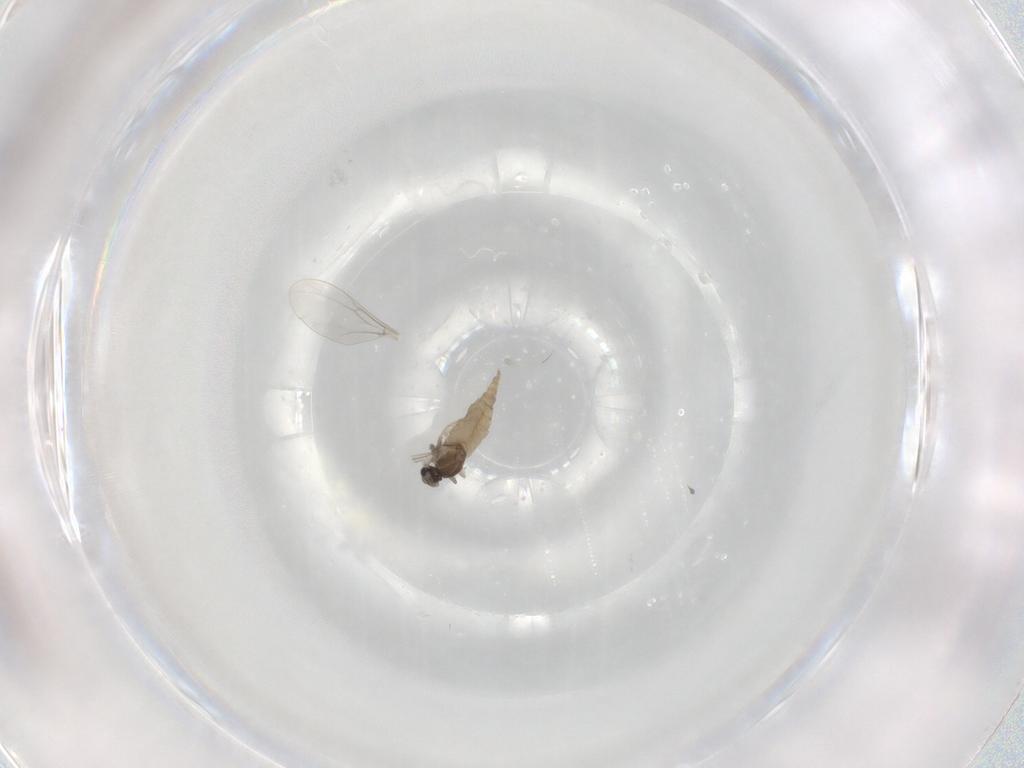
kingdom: Animalia
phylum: Arthropoda
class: Insecta
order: Diptera
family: Cecidomyiidae
